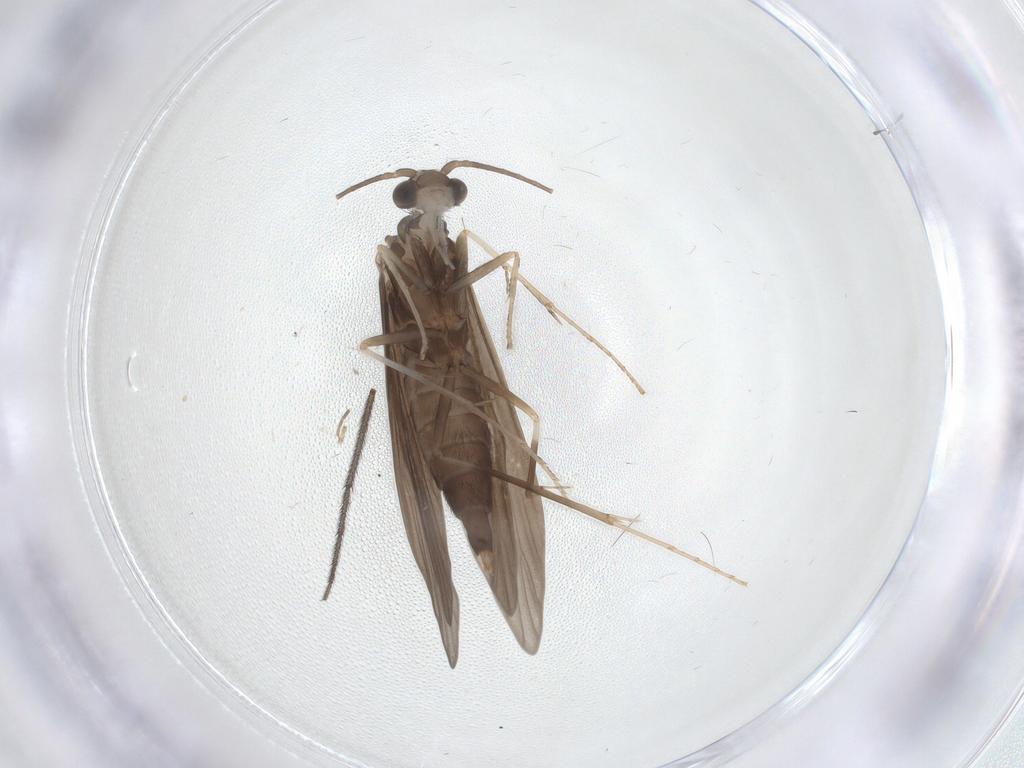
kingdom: Animalia
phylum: Arthropoda
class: Insecta
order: Trichoptera
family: Xiphocentronidae
